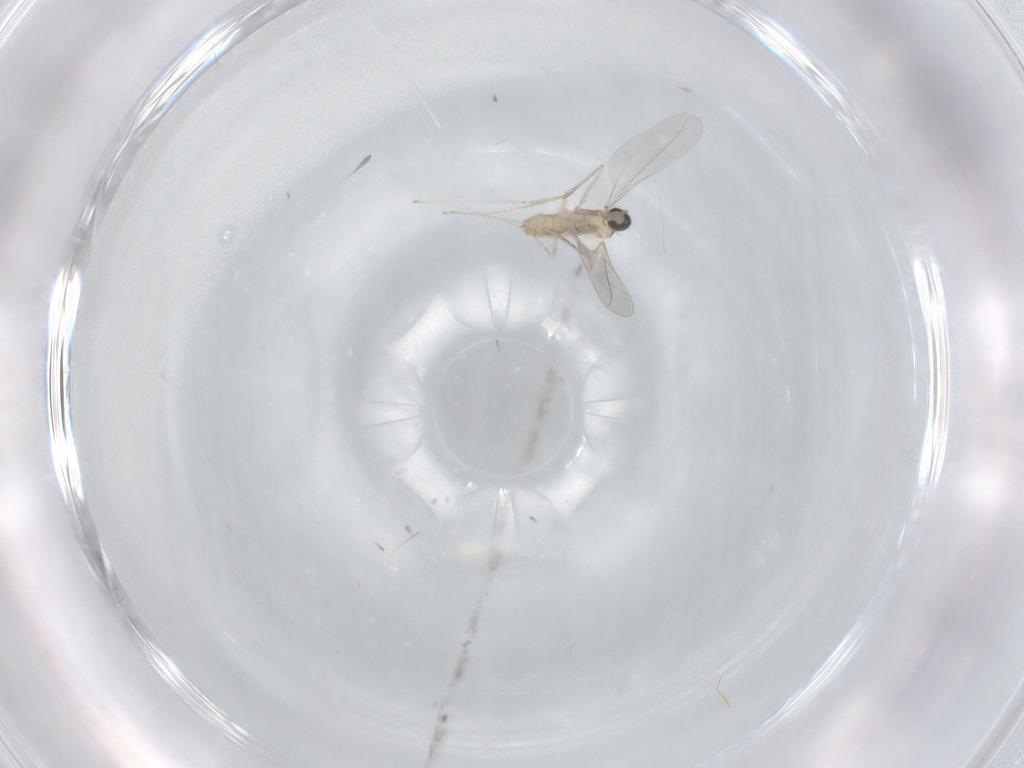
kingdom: Animalia
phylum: Arthropoda
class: Insecta
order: Diptera
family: Cecidomyiidae
